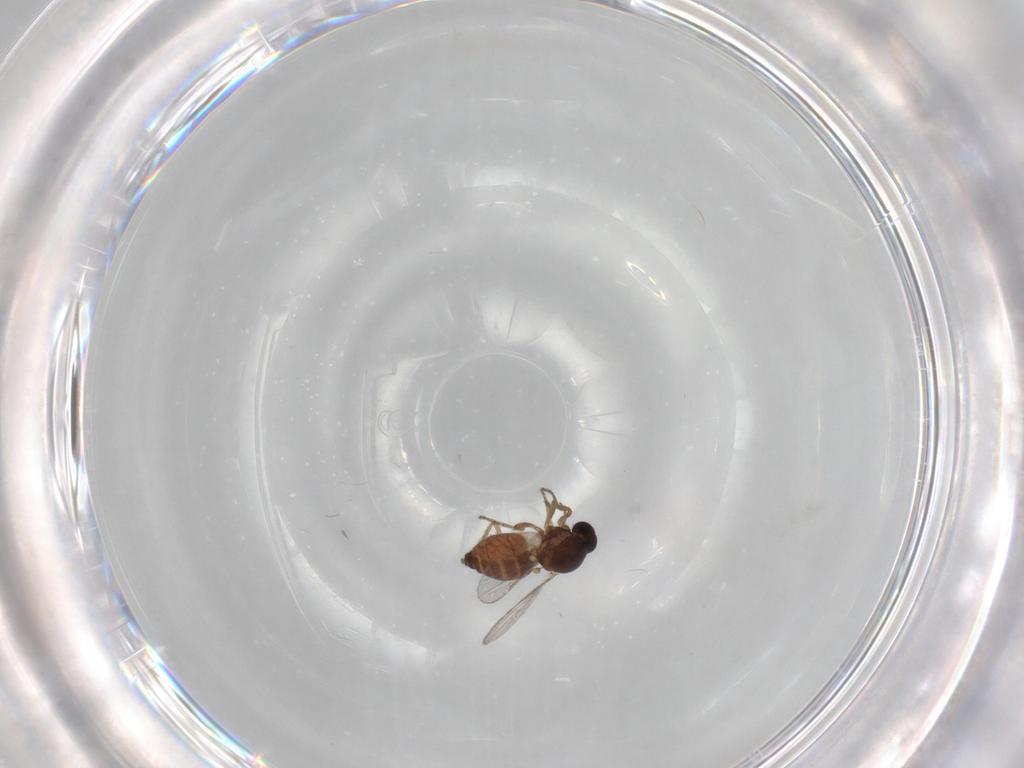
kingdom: Animalia
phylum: Arthropoda
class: Insecta
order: Diptera
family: Ceratopogonidae
